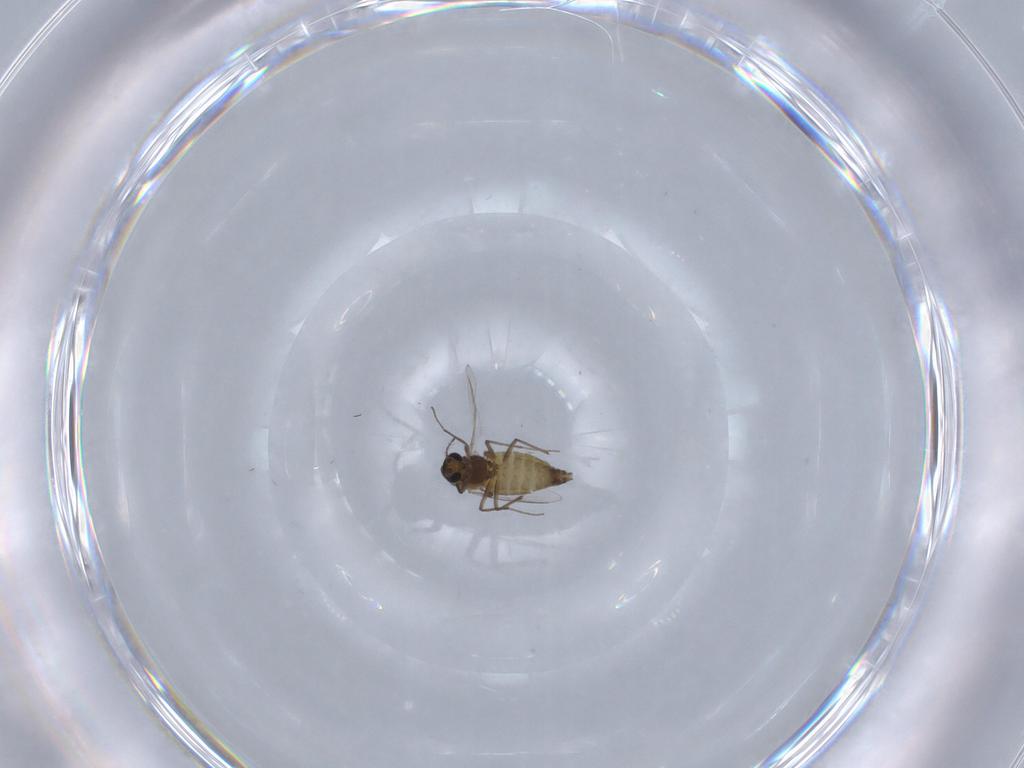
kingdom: Animalia
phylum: Arthropoda
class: Insecta
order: Diptera
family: Chironomidae
